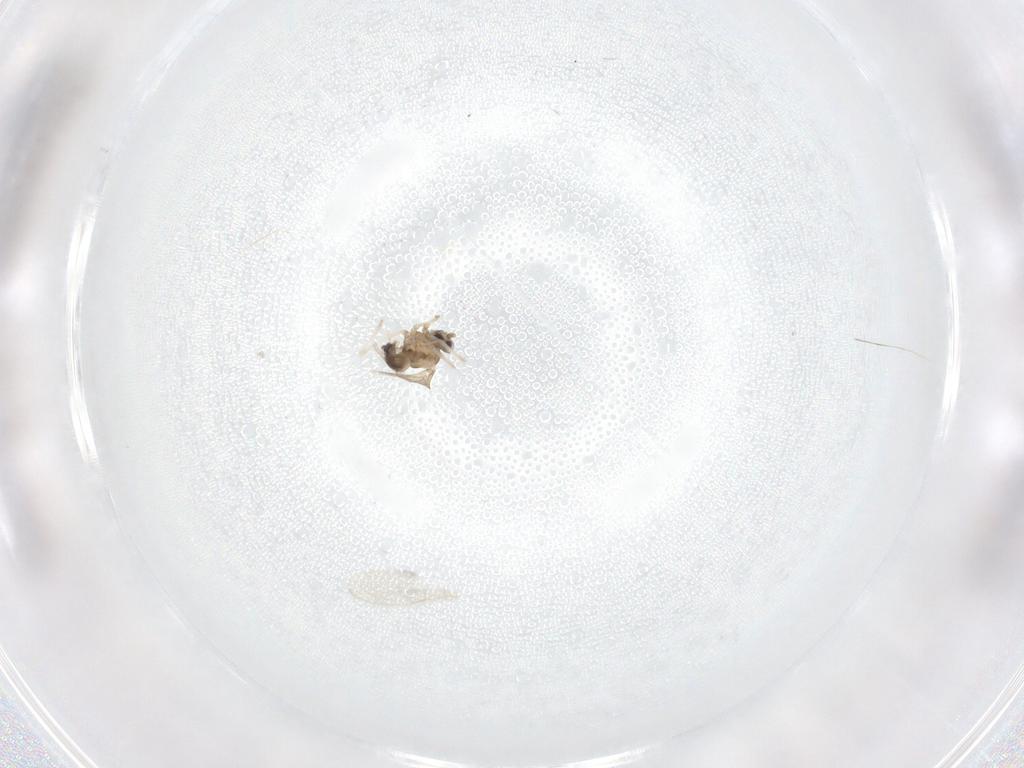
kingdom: Animalia
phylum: Arthropoda
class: Insecta
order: Diptera
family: Cecidomyiidae
